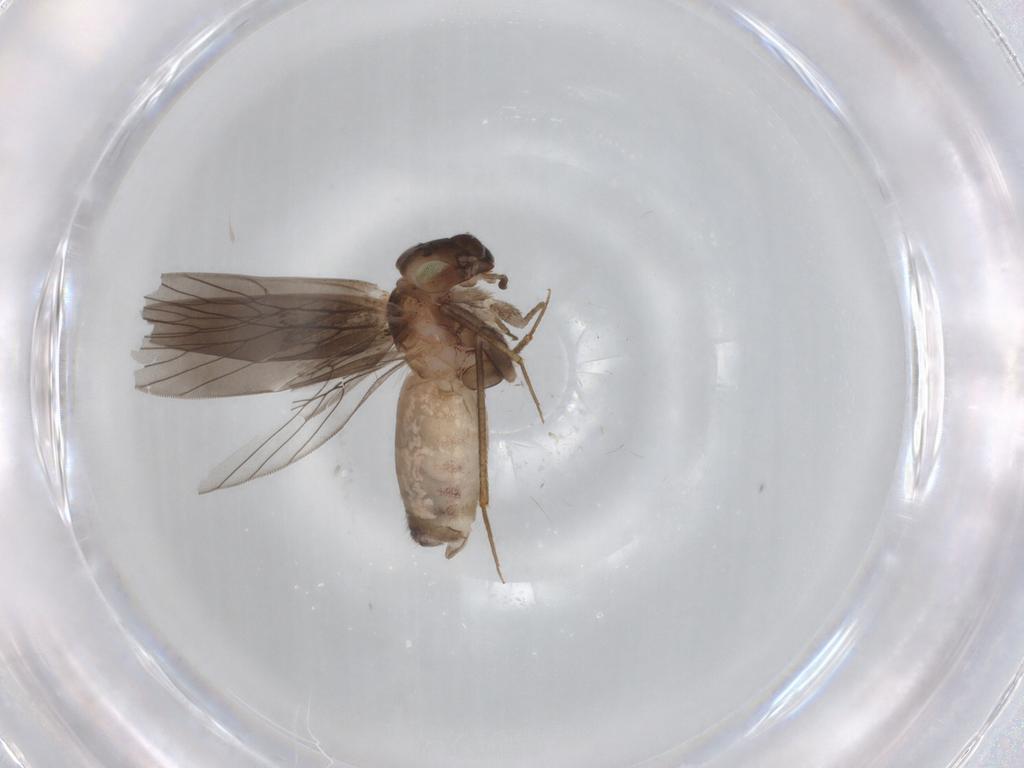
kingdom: Animalia
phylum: Arthropoda
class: Insecta
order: Psocodea
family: Lepidopsocidae
